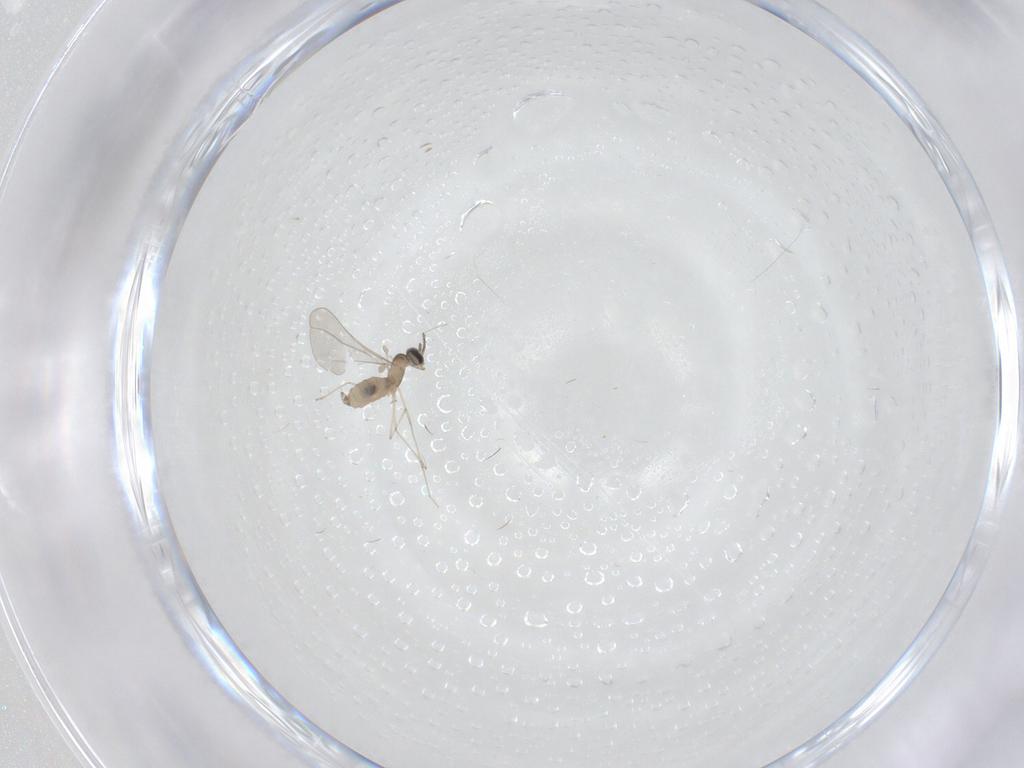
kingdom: Animalia
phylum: Arthropoda
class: Insecta
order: Diptera
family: Cecidomyiidae
